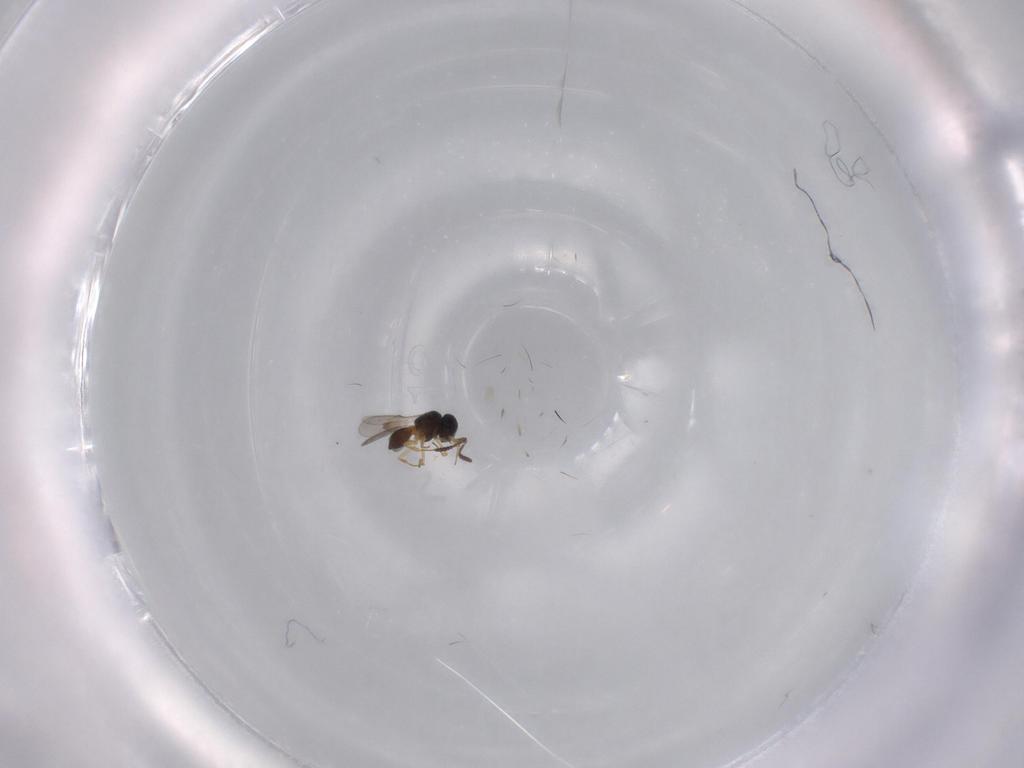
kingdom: Animalia
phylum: Arthropoda
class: Insecta
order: Hymenoptera
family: Scelionidae
